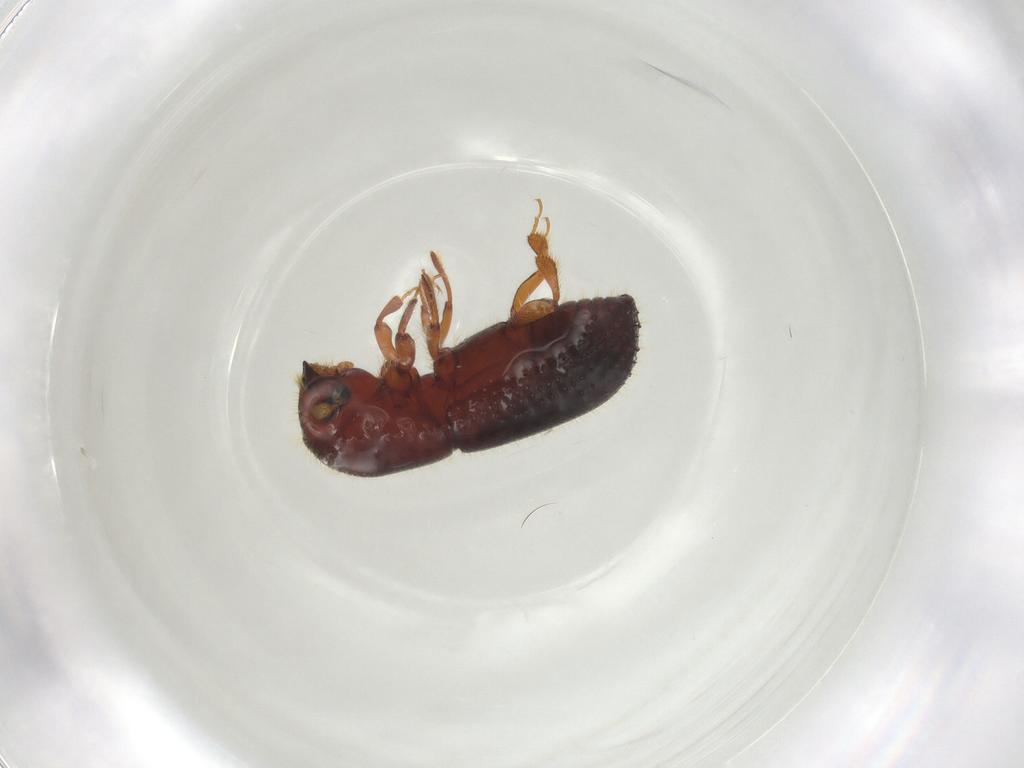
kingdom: Animalia
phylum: Arthropoda
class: Insecta
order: Coleoptera
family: Curculionidae
